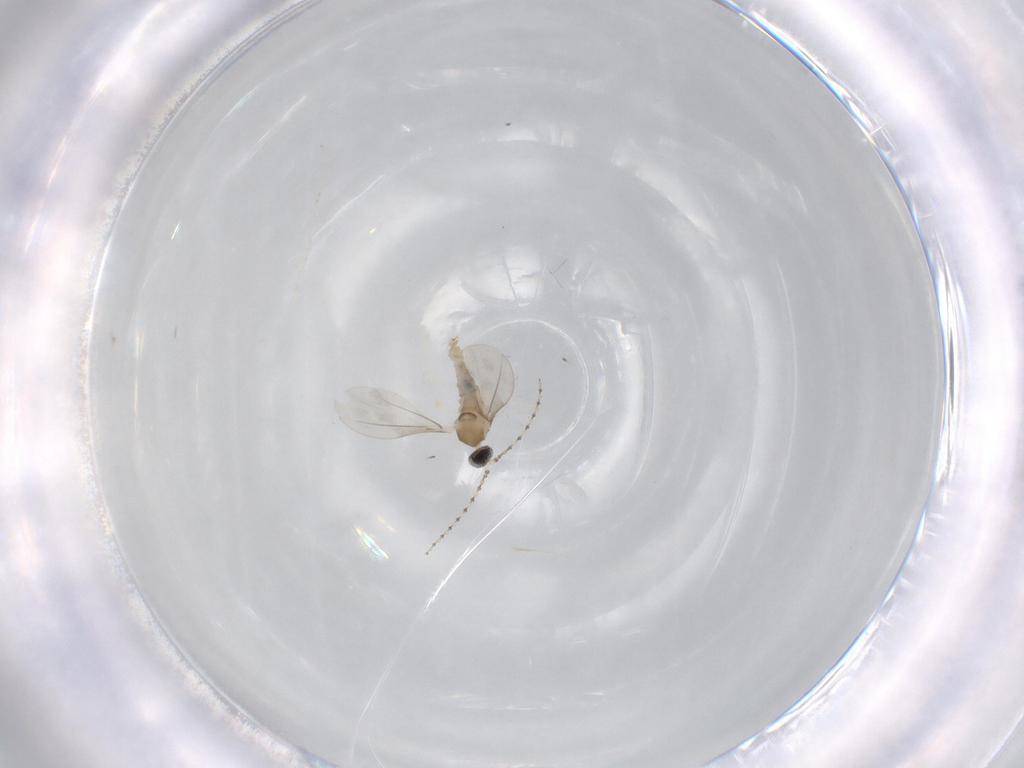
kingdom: Animalia
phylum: Arthropoda
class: Insecta
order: Diptera
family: Cecidomyiidae
